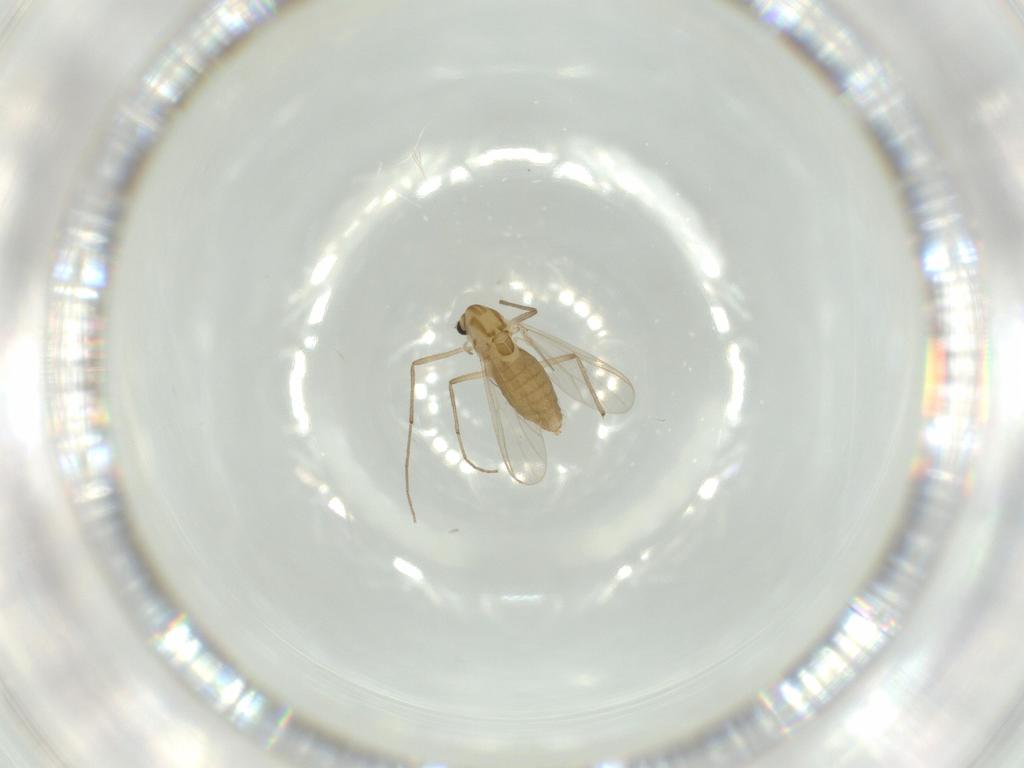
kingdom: Animalia
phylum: Arthropoda
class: Insecta
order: Diptera
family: Chironomidae
